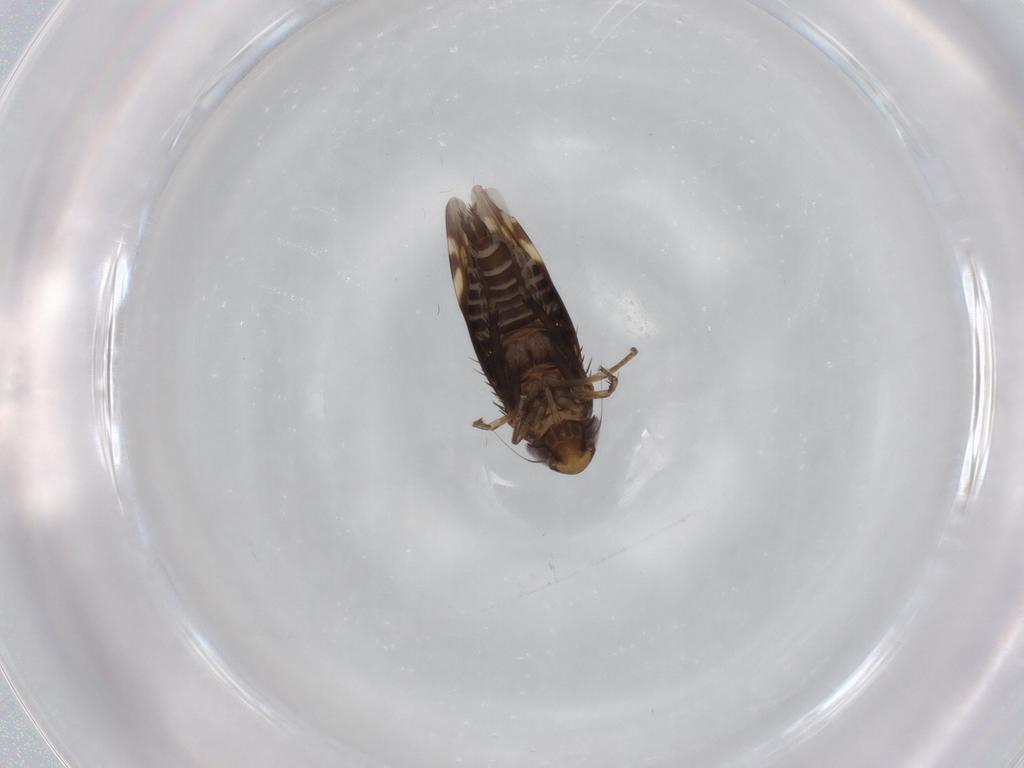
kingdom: Animalia
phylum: Arthropoda
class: Insecta
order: Hemiptera
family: Cicadellidae
